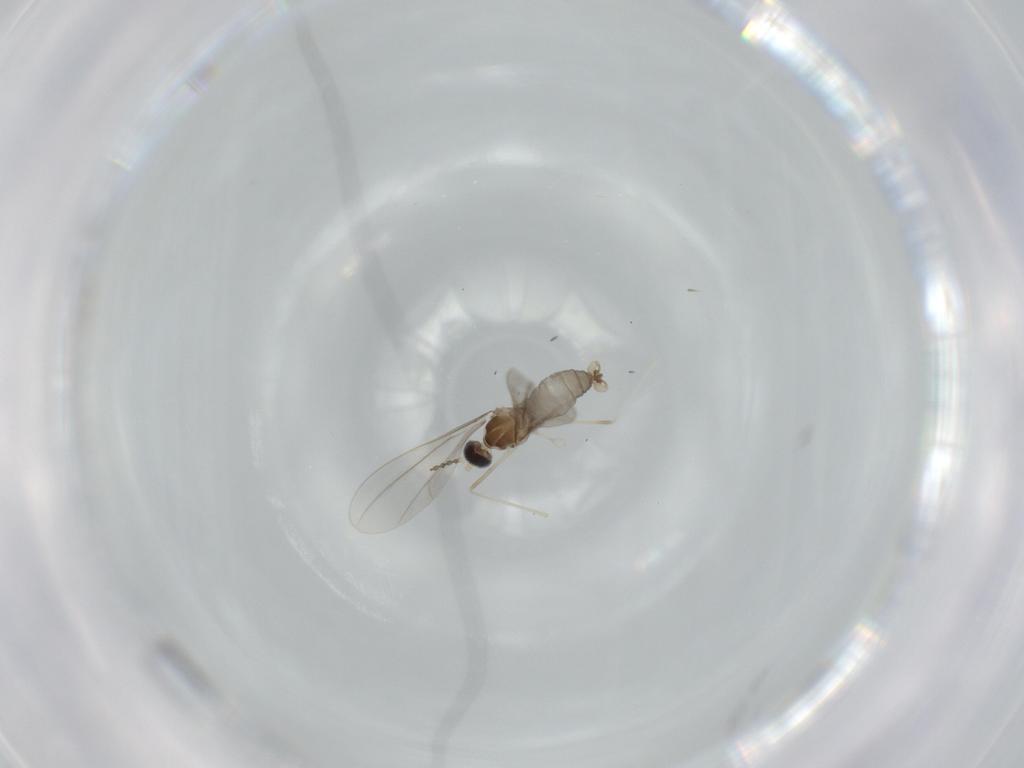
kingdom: Animalia
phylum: Arthropoda
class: Insecta
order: Diptera
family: Cecidomyiidae
